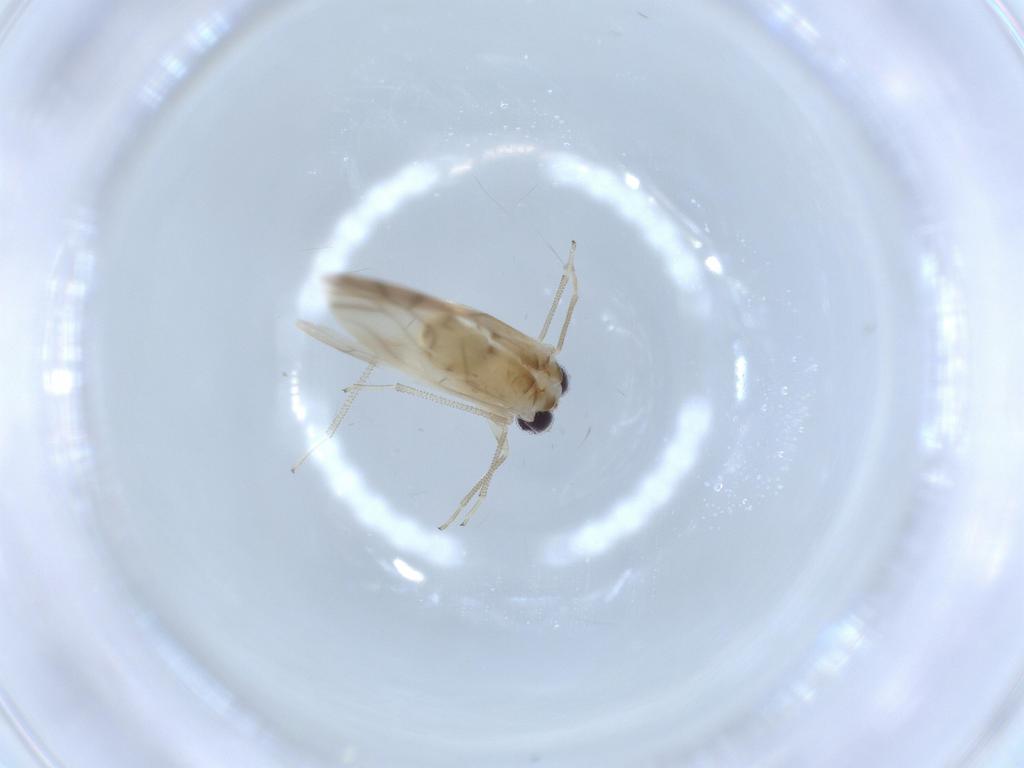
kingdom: Animalia
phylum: Arthropoda
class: Insecta
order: Psocodea
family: Caeciliusidae
